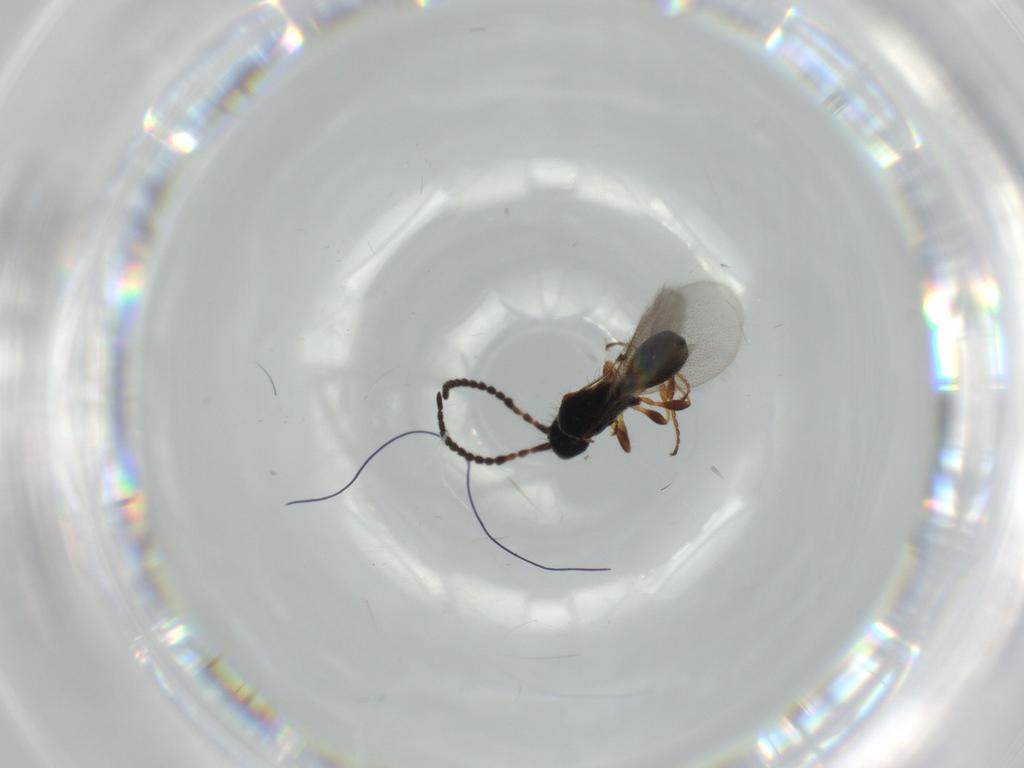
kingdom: Animalia
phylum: Arthropoda
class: Insecta
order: Hymenoptera
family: Diapriidae
